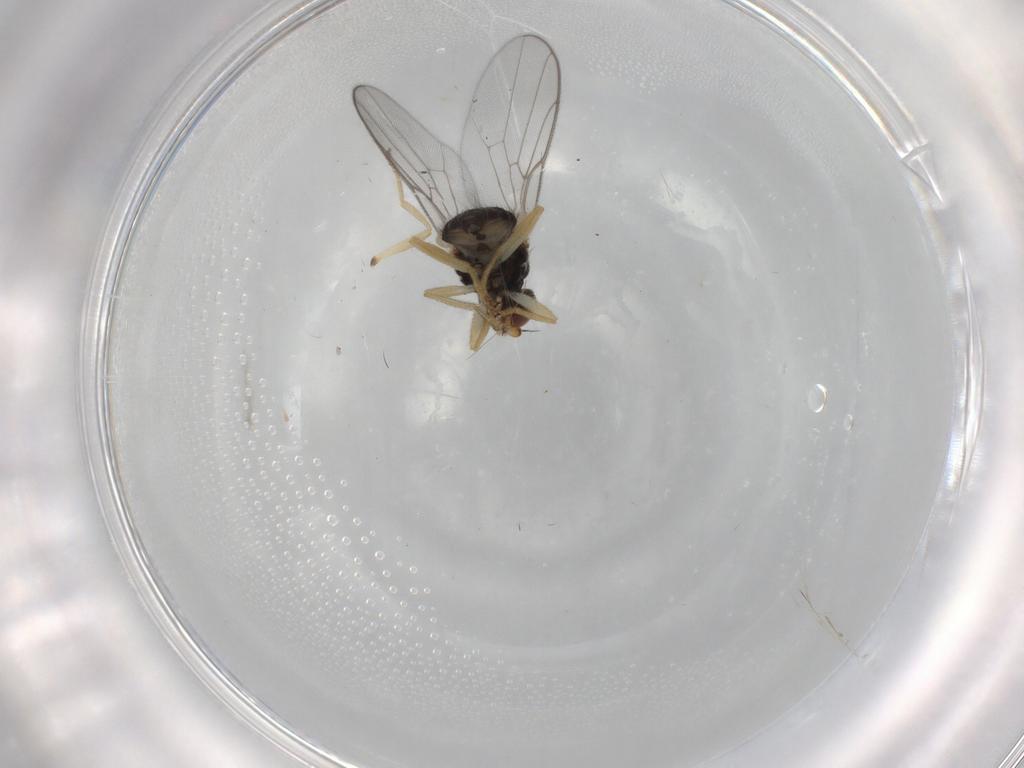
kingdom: Animalia
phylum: Arthropoda
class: Insecta
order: Diptera
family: Chloropidae
